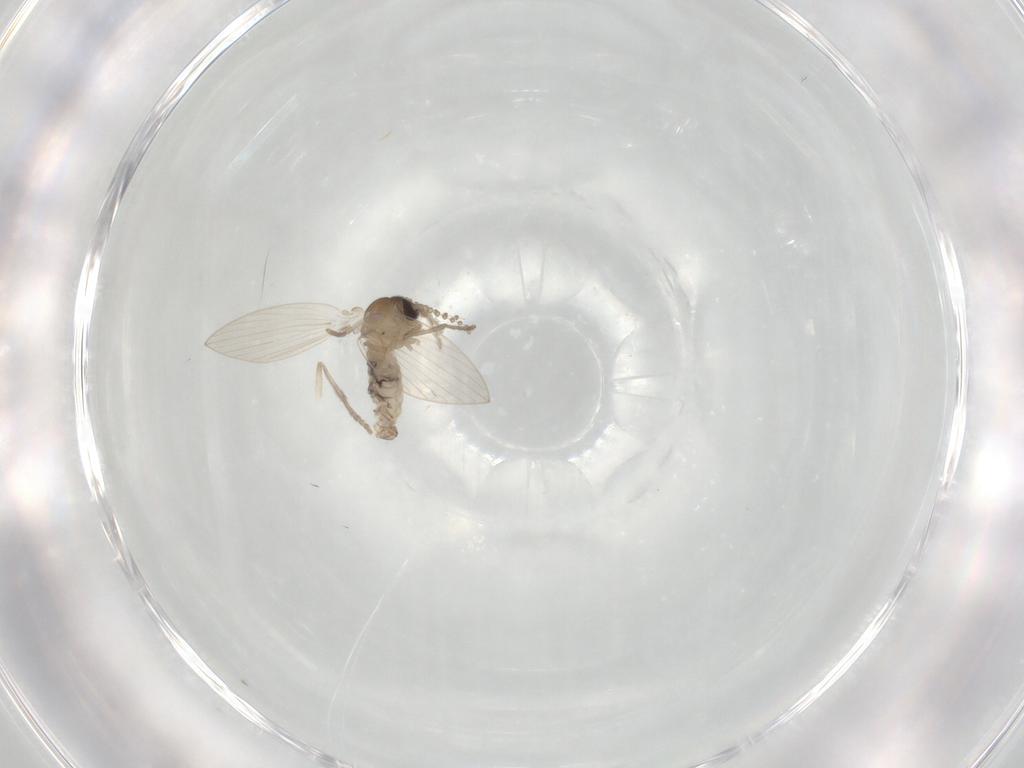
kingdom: Animalia
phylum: Arthropoda
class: Insecta
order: Diptera
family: Psychodidae
